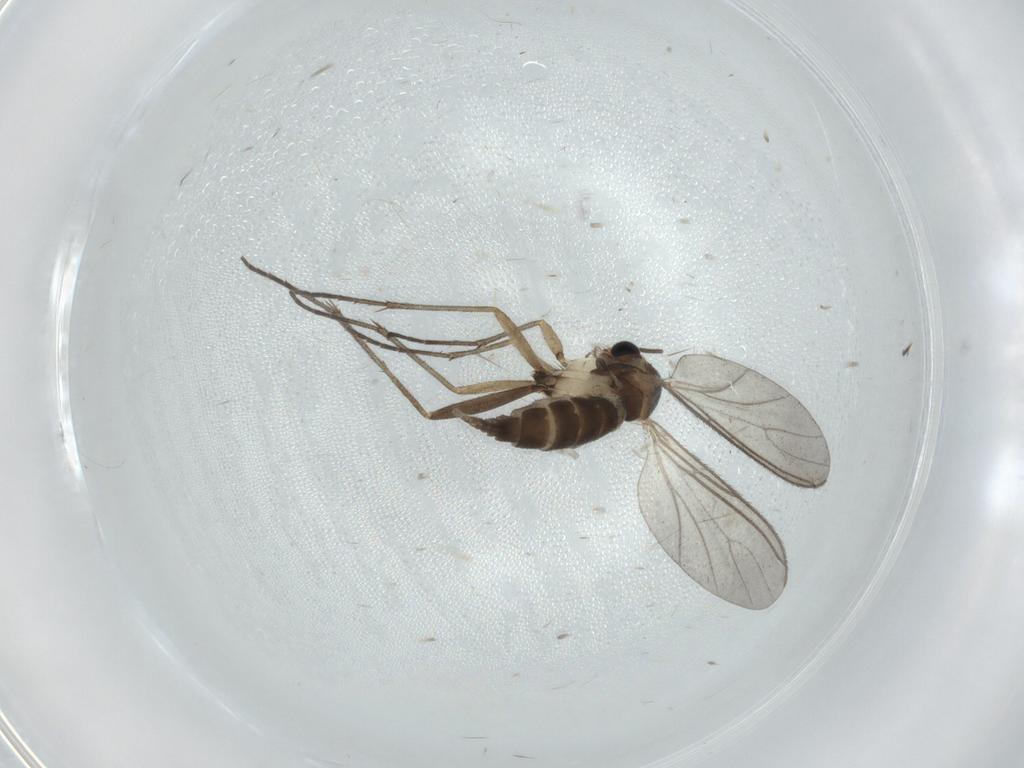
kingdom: Animalia
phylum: Arthropoda
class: Insecta
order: Diptera
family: Sciaridae
